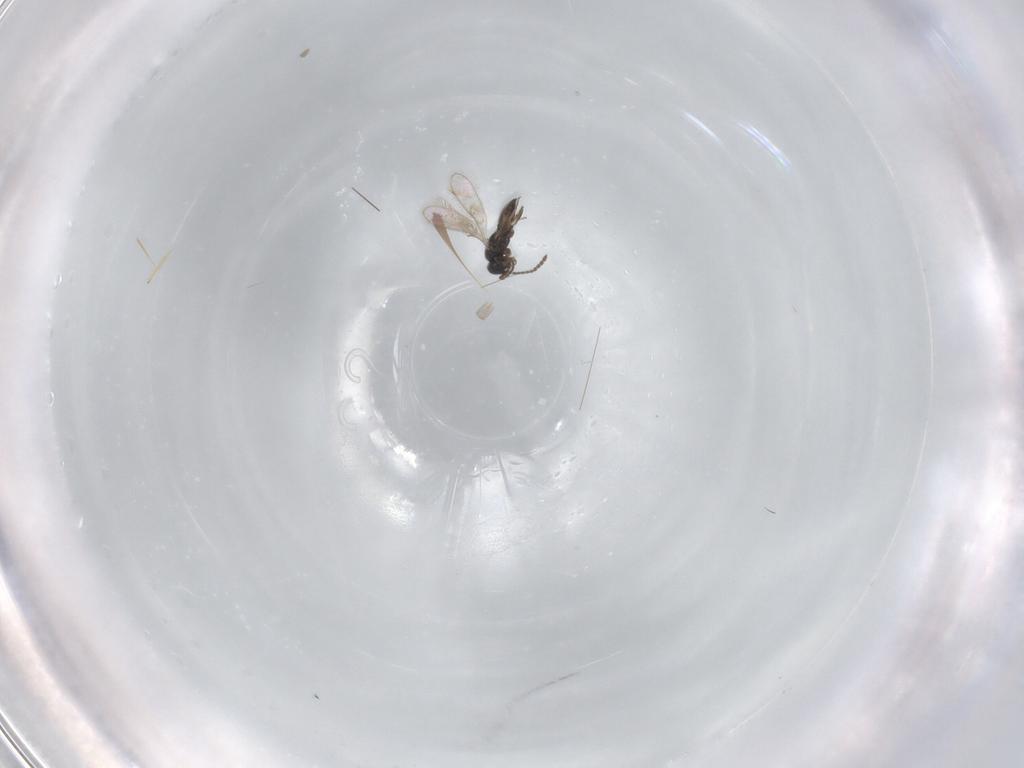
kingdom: Animalia
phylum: Arthropoda
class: Insecta
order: Hymenoptera
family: Scelionidae
